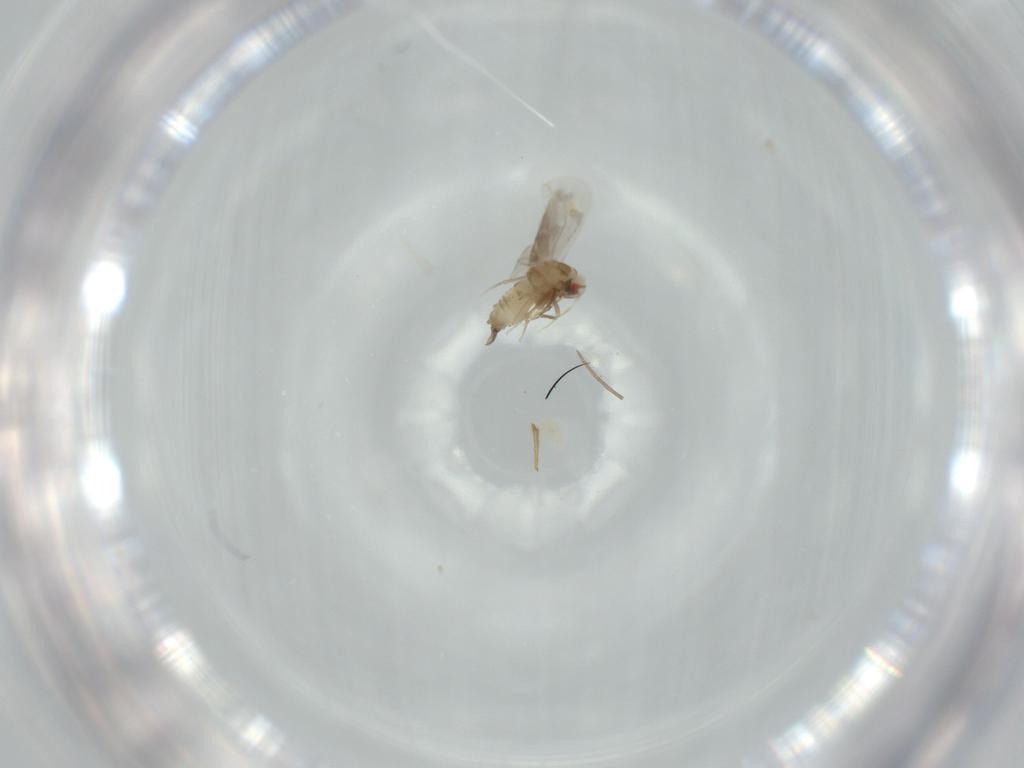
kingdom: Animalia
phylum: Arthropoda
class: Insecta
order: Hemiptera
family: Aleyrodidae
